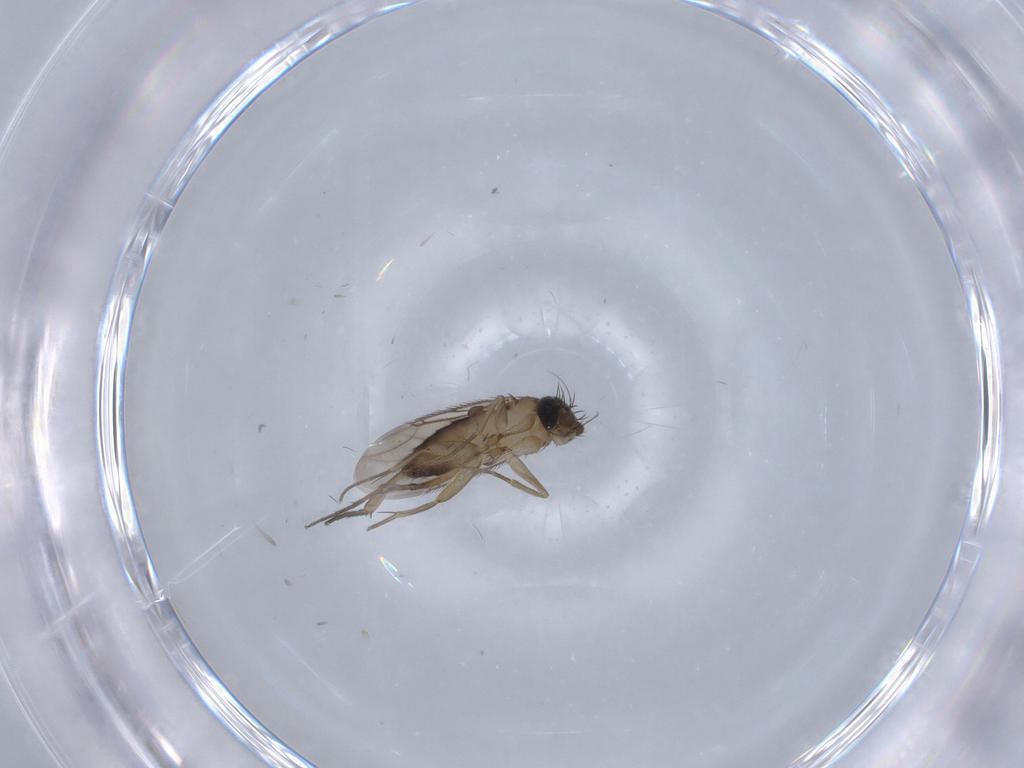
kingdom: Animalia
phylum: Arthropoda
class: Insecta
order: Diptera
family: Phoridae
